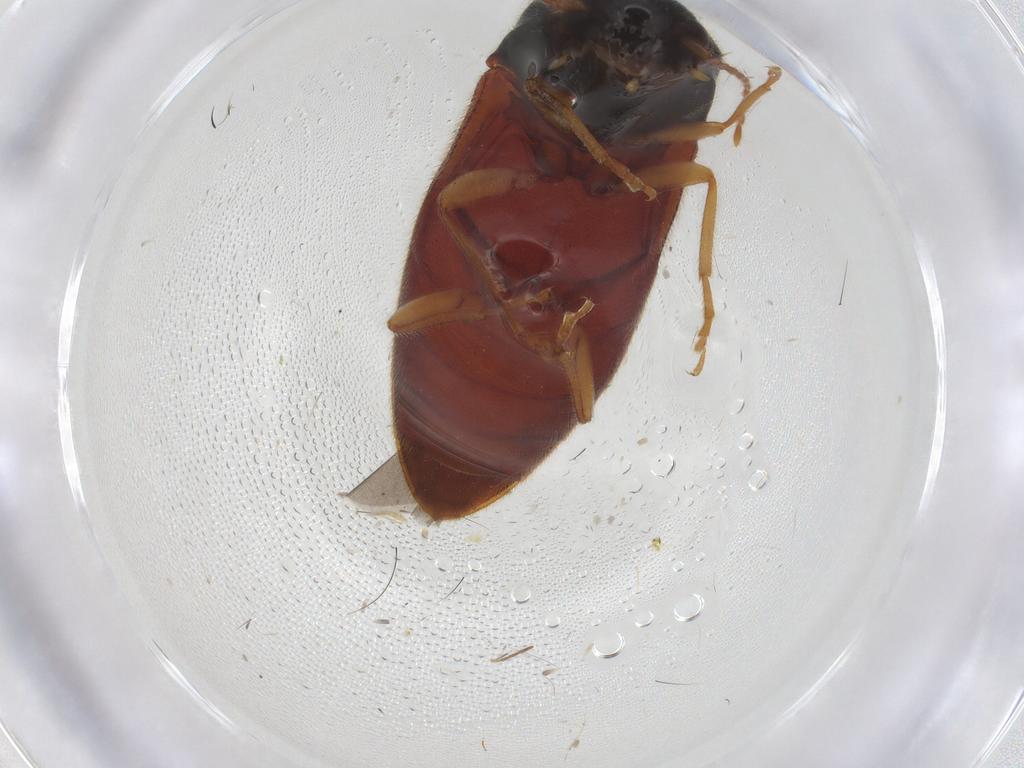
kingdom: Animalia
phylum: Arthropoda
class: Insecta
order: Coleoptera
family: Elateridae
